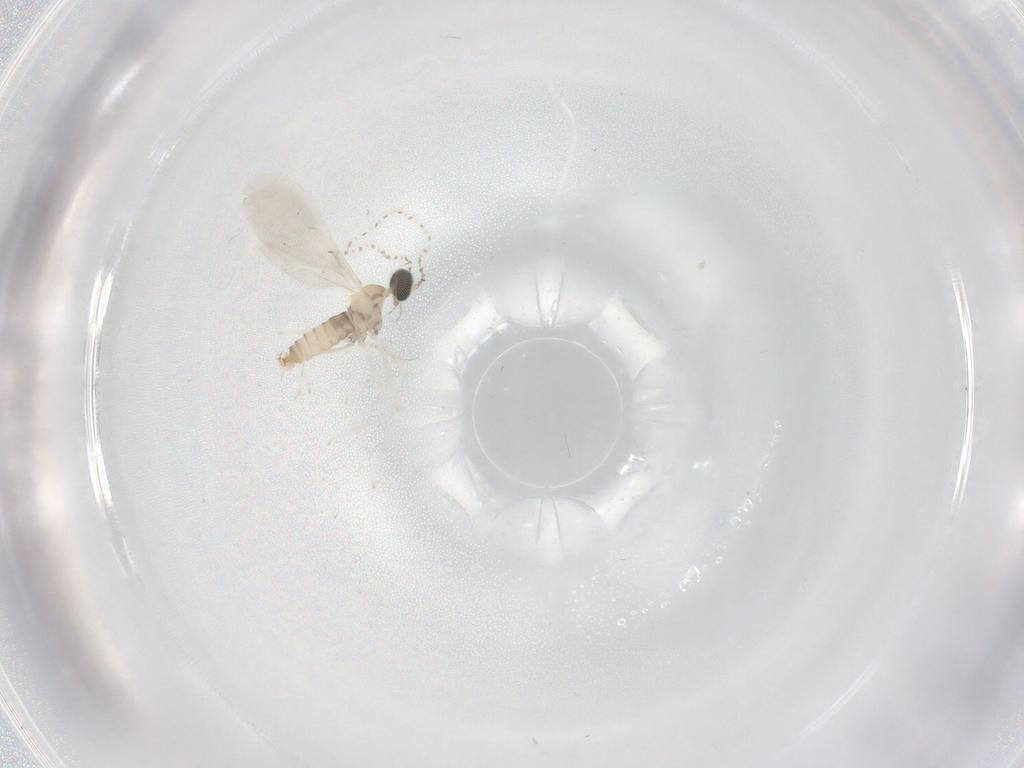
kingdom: Animalia
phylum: Arthropoda
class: Insecta
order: Diptera
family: Cecidomyiidae
